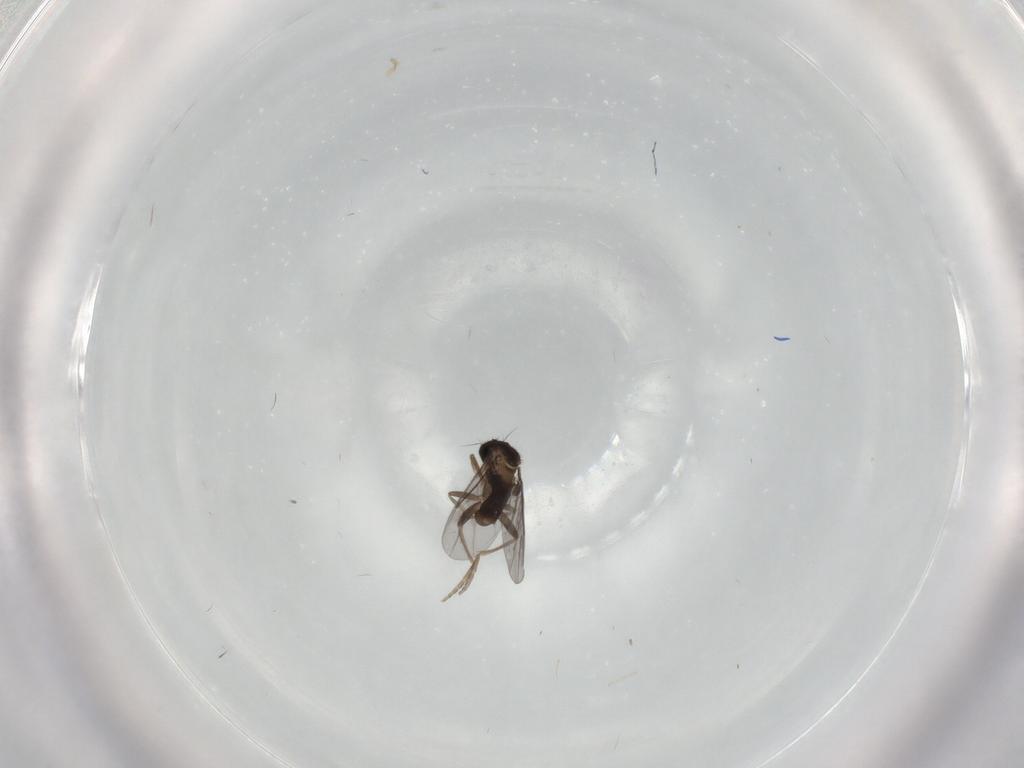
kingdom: Animalia
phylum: Arthropoda
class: Insecta
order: Diptera
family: Cecidomyiidae
